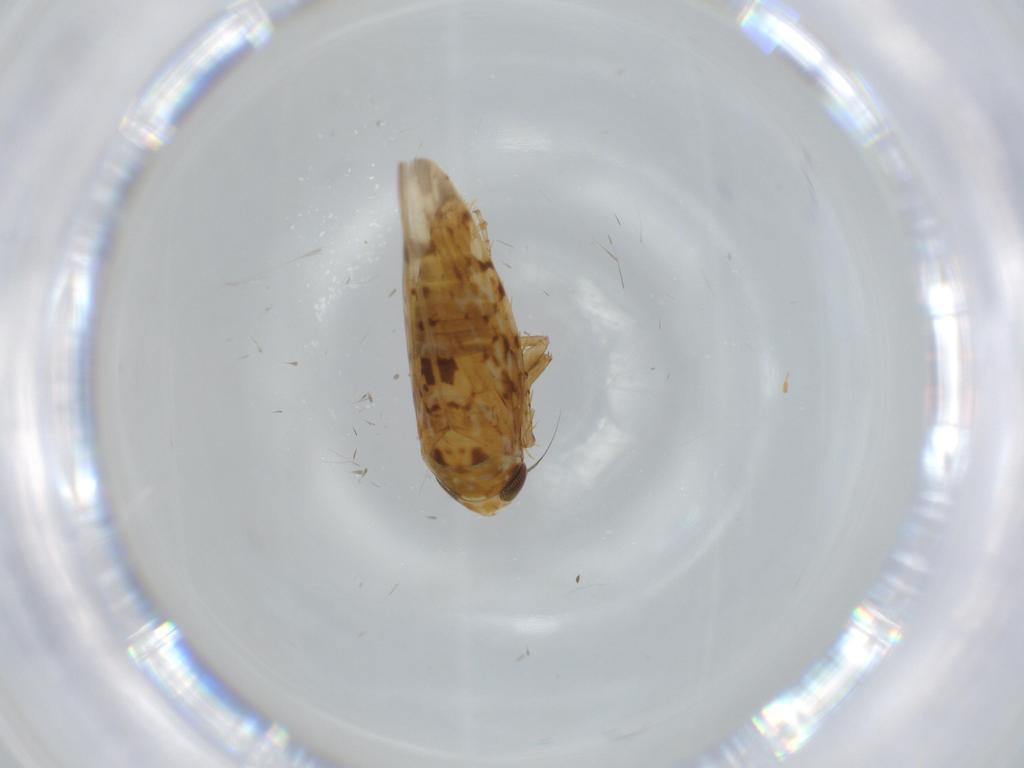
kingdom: Animalia
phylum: Arthropoda
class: Insecta
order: Hemiptera
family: Cicadellidae
